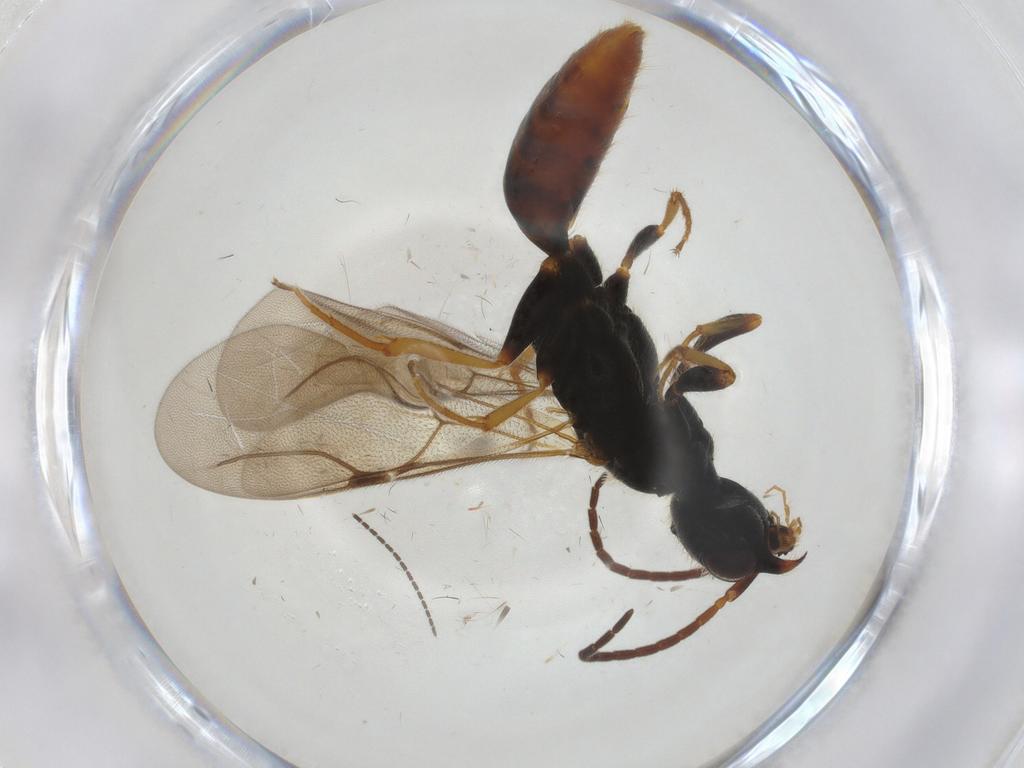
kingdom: Animalia
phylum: Arthropoda
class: Insecta
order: Hymenoptera
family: Bethylidae
